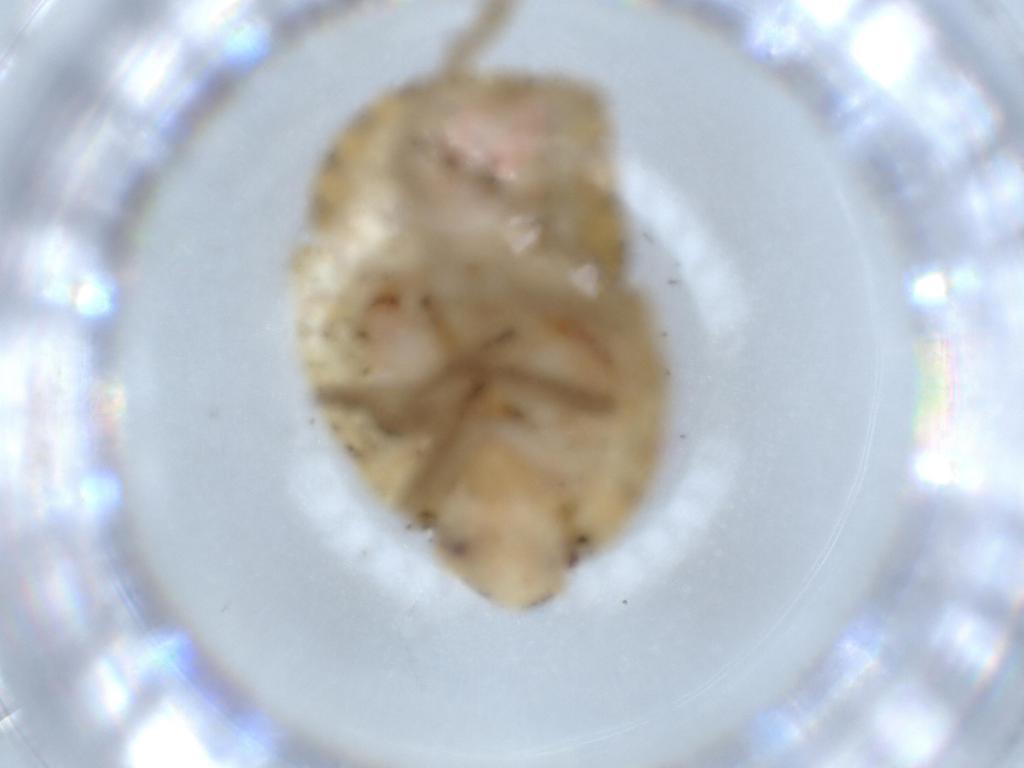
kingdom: Animalia
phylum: Arthropoda
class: Insecta
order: Hemiptera
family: Flatidae
